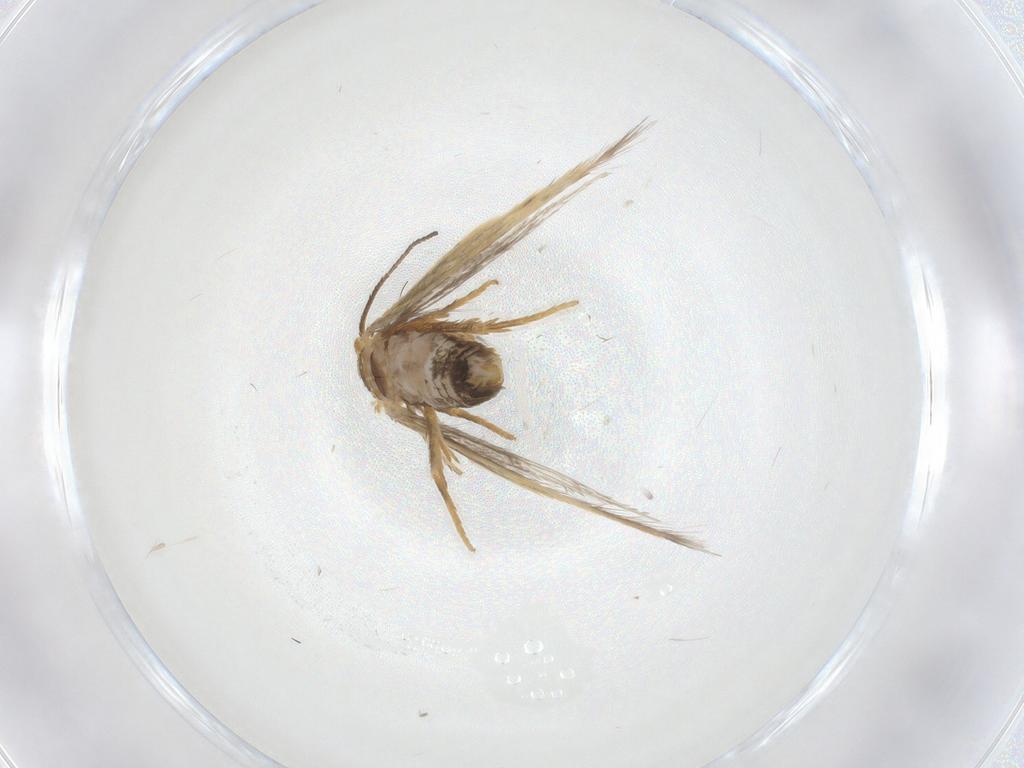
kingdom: Animalia
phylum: Arthropoda
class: Insecta
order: Lepidoptera
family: Nepticulidae
